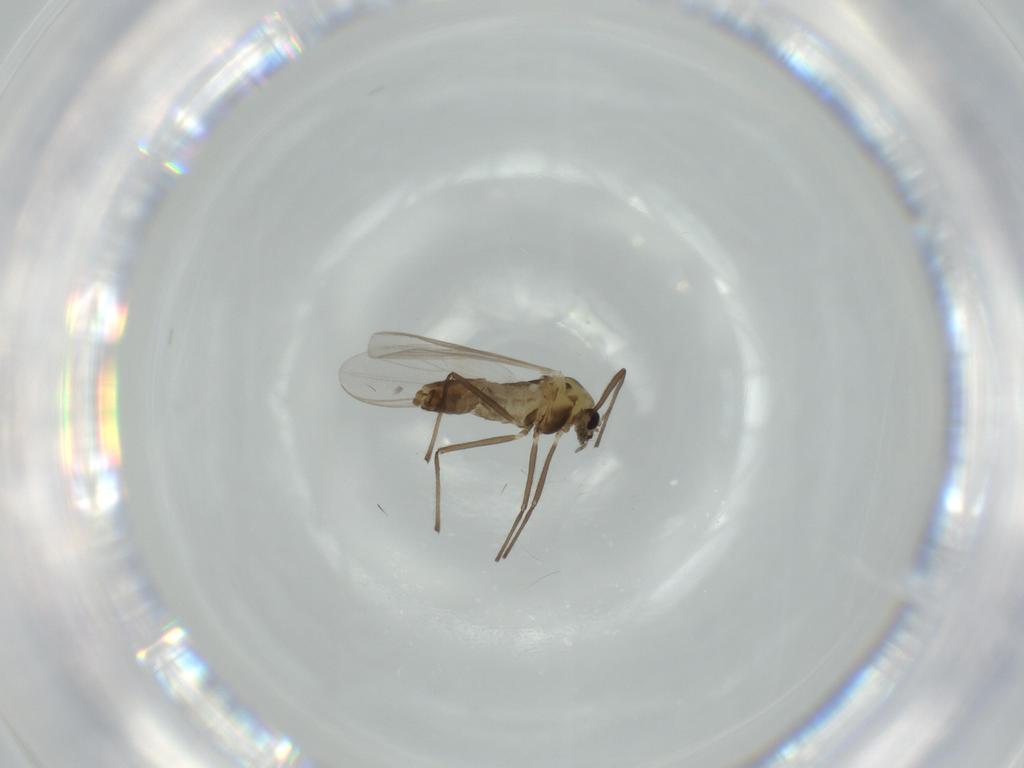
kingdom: Animalia
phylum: Arthropoda
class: Insecta
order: Diptera
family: Chironomidae
